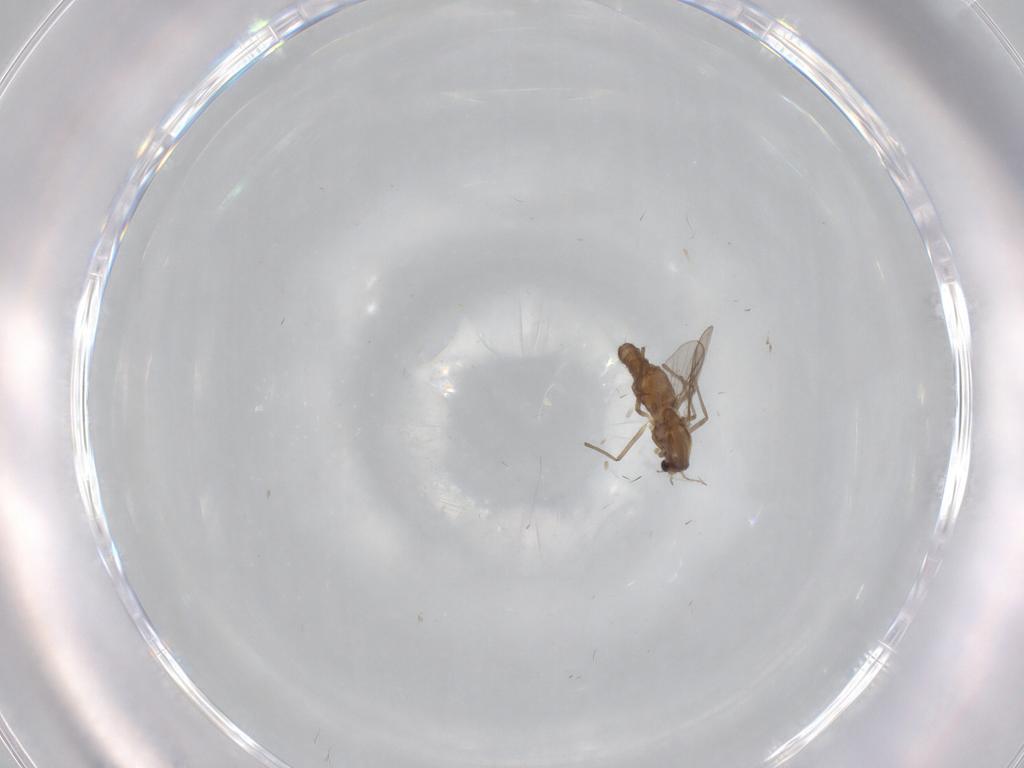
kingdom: Animalia
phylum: Arthropoda
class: Insecta
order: Diptera
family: Chironomidae
